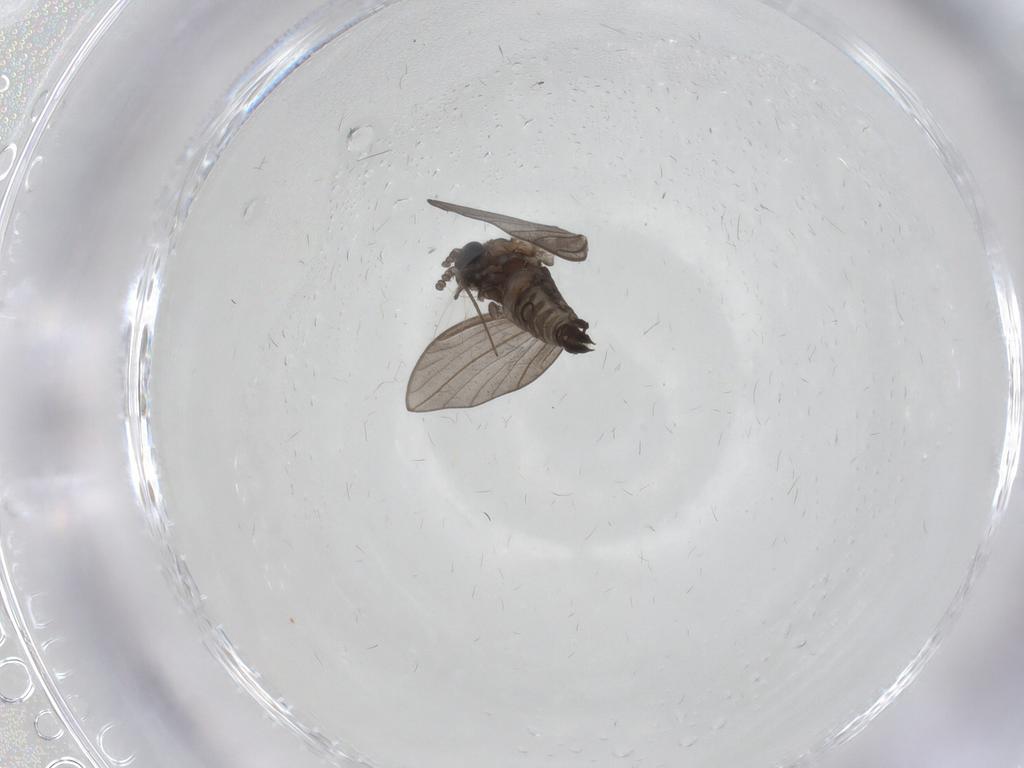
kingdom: Animalia
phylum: Arthropoda
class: Insecta
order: Diptera
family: Psychodidae
